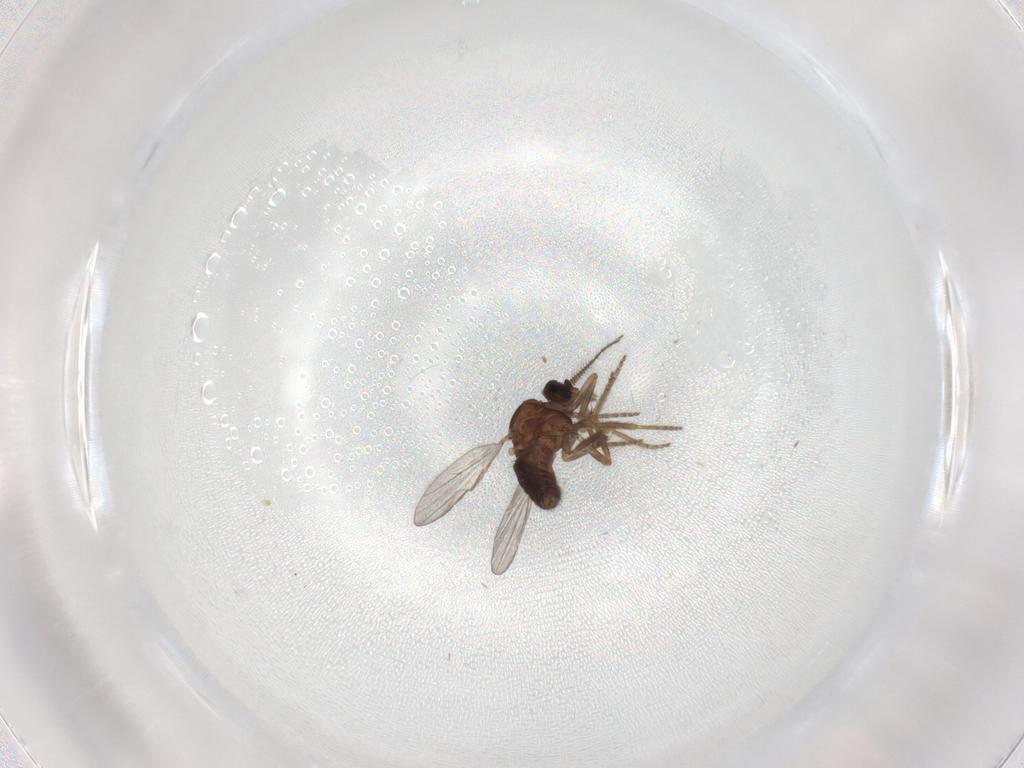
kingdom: Animalia
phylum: Arthropoda
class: Insecta
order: Diptera
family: Ceratopogonidae
